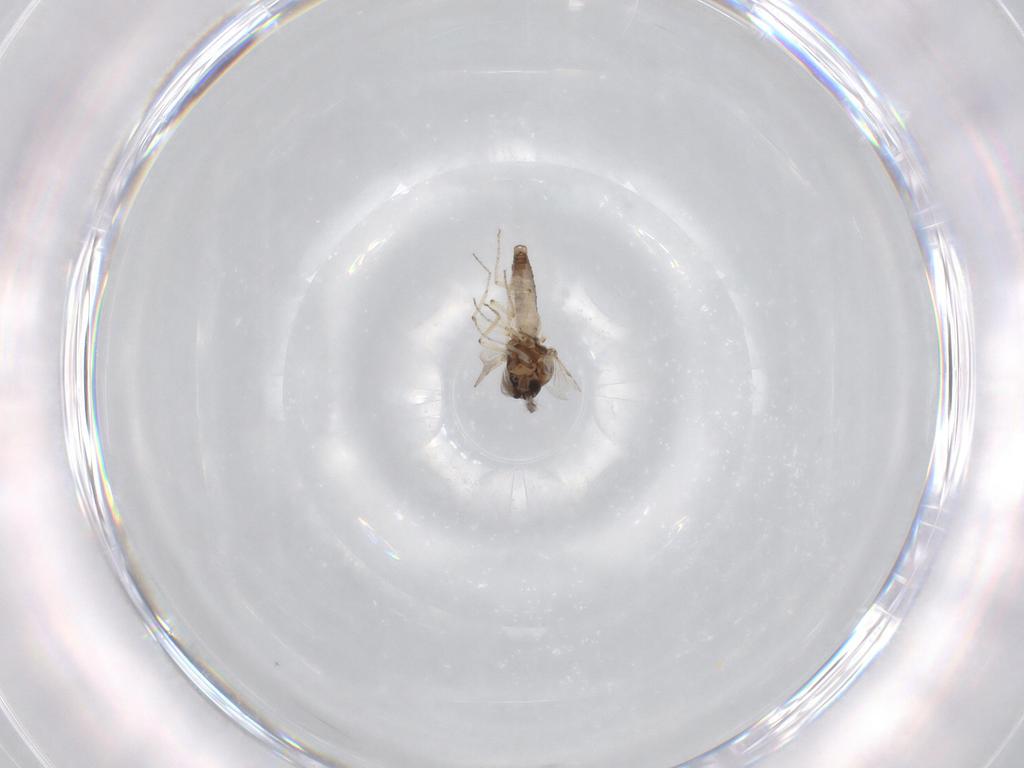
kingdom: Animalia
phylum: Arthropoda
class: Insecta
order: Diptera
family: Ceratopogonidae
